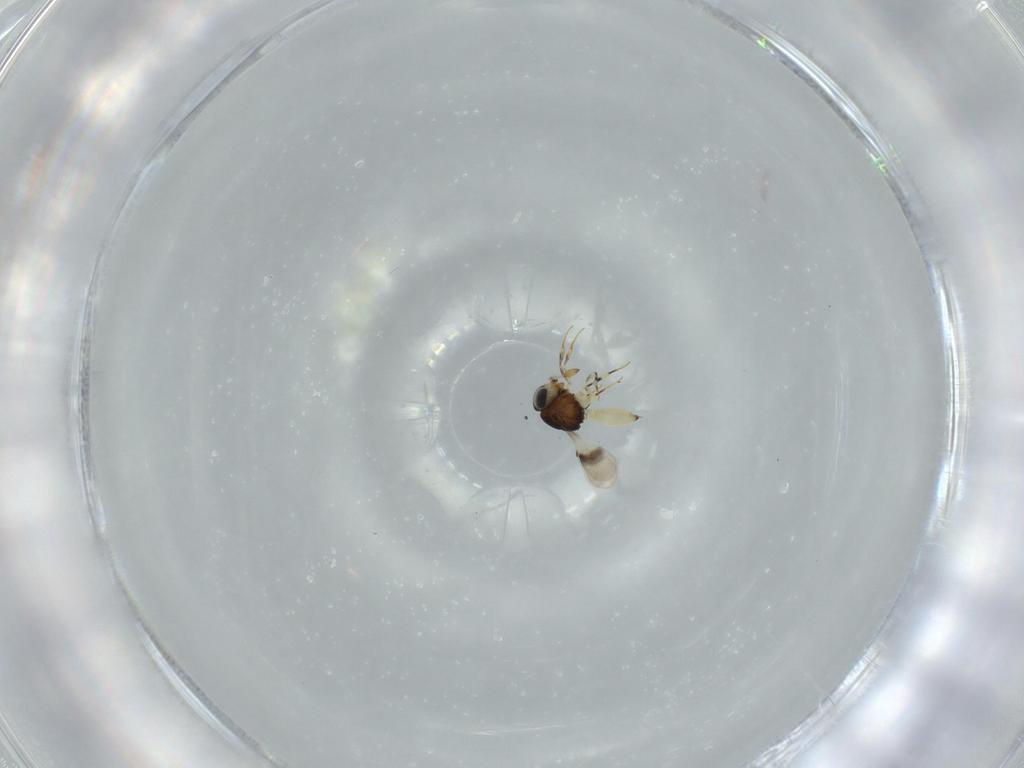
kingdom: Animalia
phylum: Arthropoda
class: Insecta
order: Hymenoptera
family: Scelionidae
